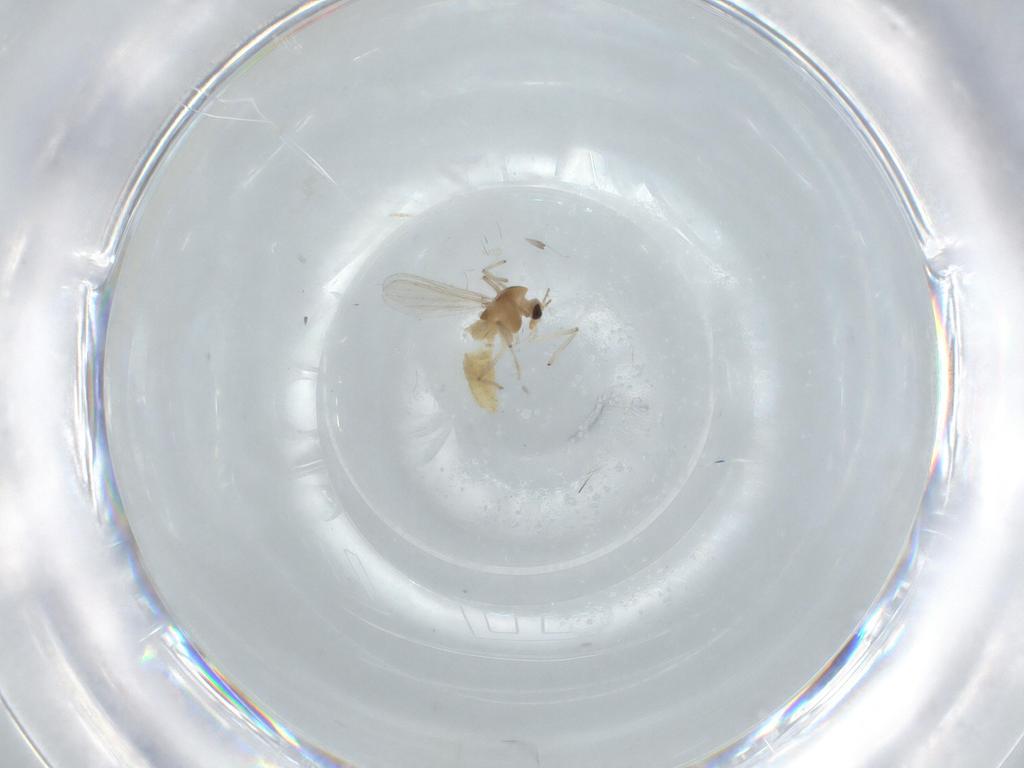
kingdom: Animalia
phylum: Arthropoda
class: Insecta
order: Diptera
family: Chironomidae
